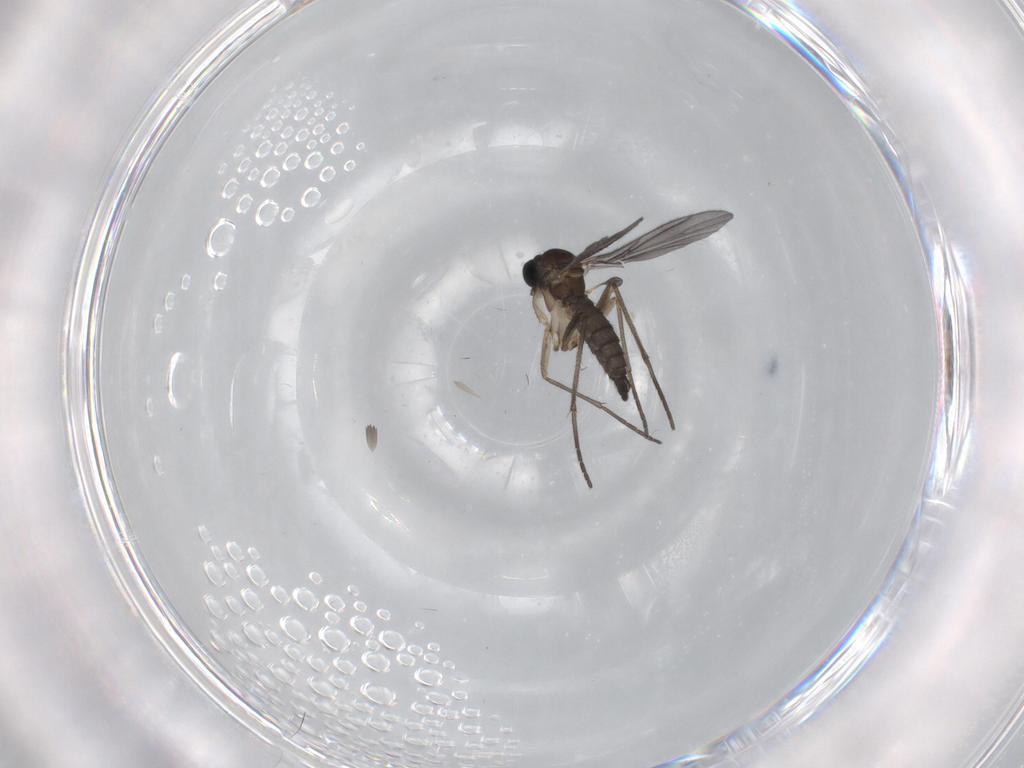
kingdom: Animalia
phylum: Arthropoda
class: Insecta
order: Diptera
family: Sciaridae
